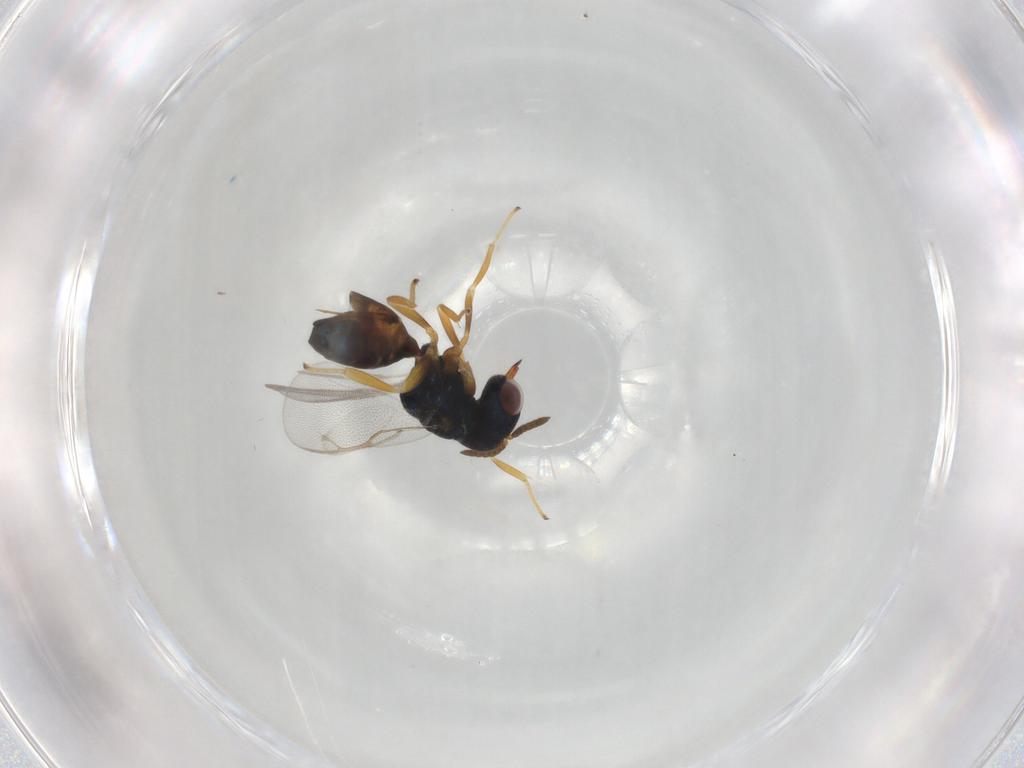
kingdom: Animalia
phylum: Arthropoda
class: Insecta
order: Hymenoptera
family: Pteromalidae
